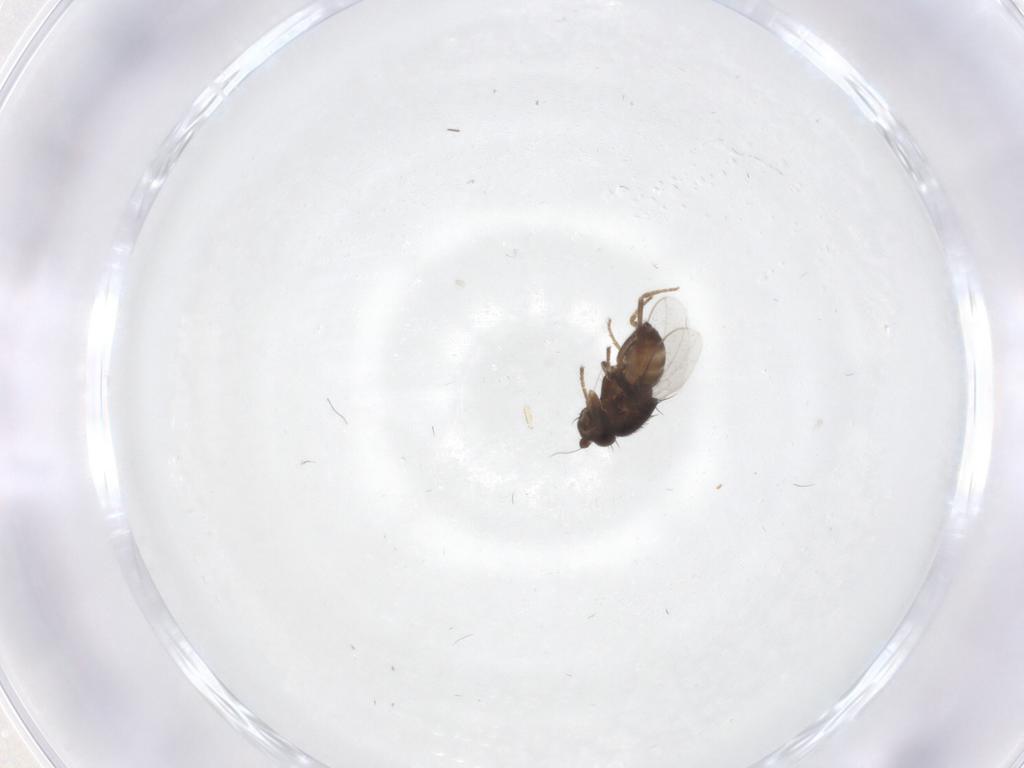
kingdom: Animalia
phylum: Arthropoda
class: Insecta
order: Diptera
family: Sphaeroceridae
